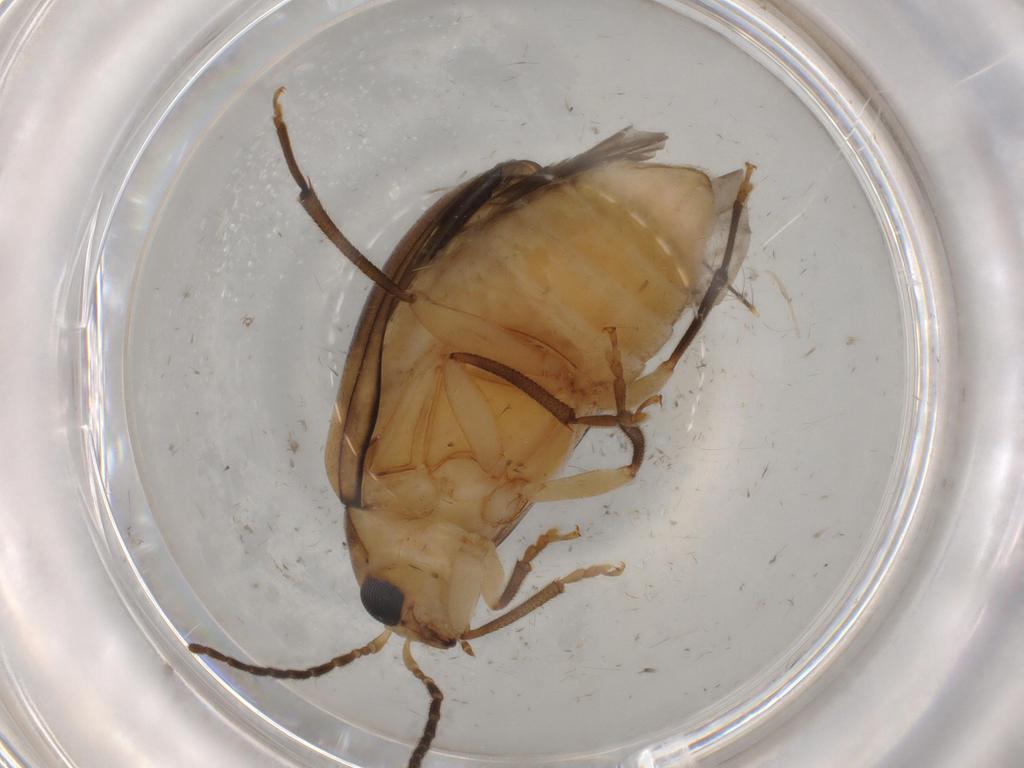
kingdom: Animalia
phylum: Arthropoda
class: Insecta
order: Coleoptera
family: Chrysomelidae
